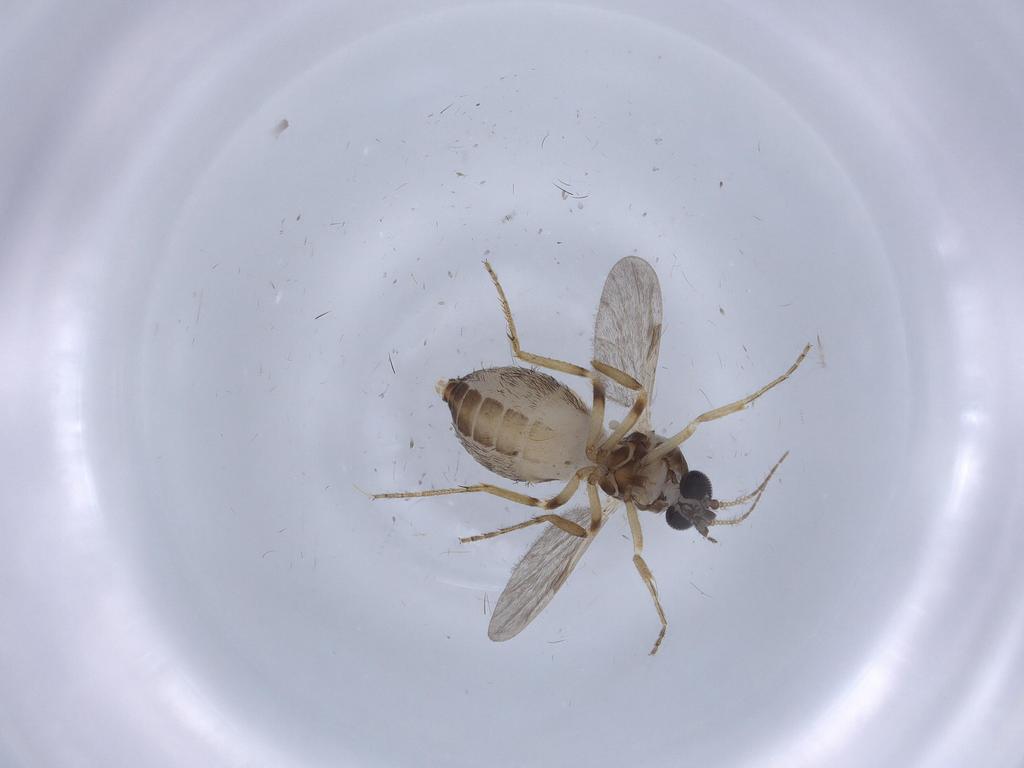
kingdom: Animalia
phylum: Arthropoda
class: Insecta
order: Diptera
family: Ceratopogonidae
